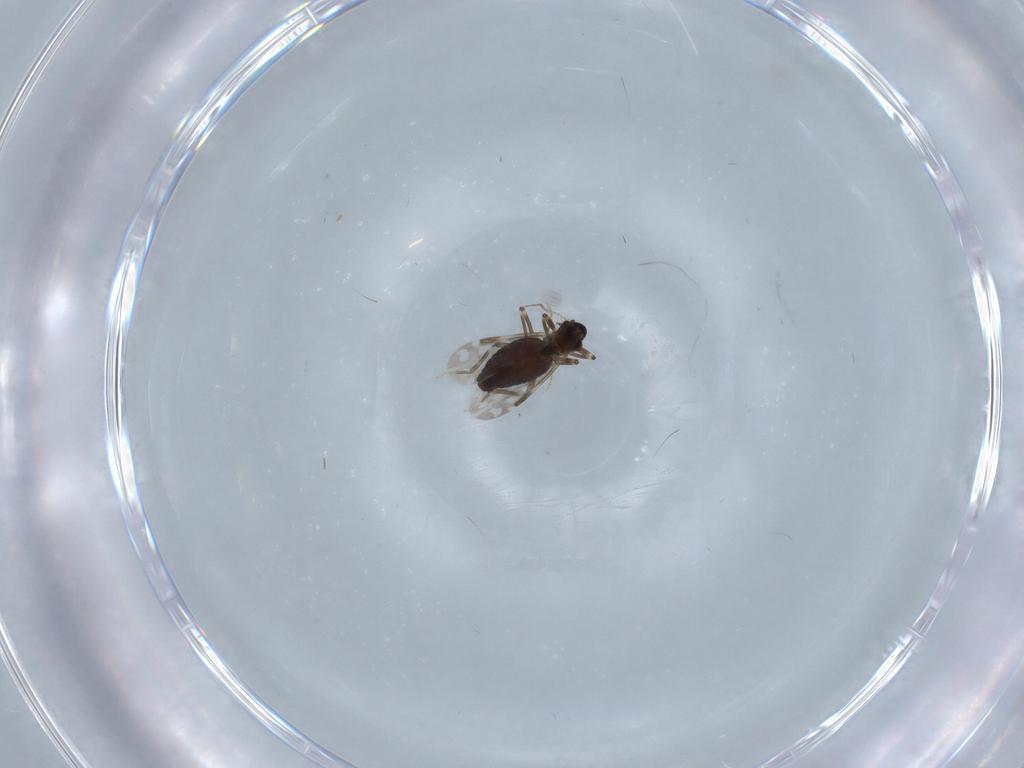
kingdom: Animalia
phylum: Arthropoda
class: Insecta
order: Diptera
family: Ceratopogonidae
